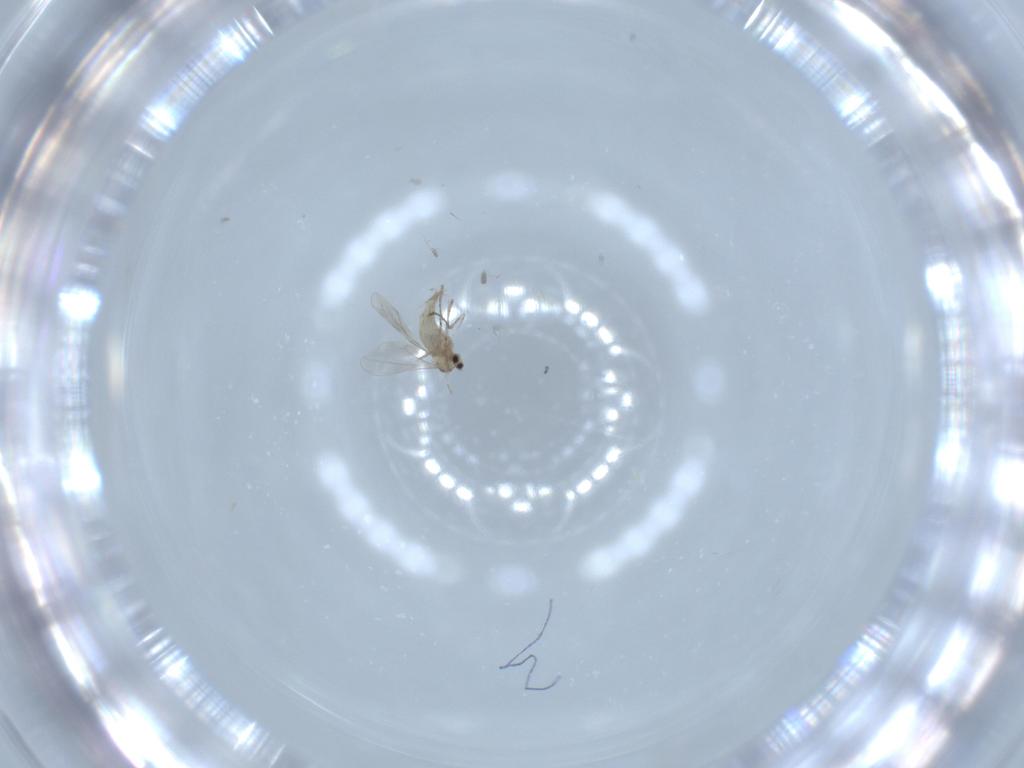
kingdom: Animalia
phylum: Arthropoda
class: Insecta
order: Diptera
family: Cecidomyiidae
